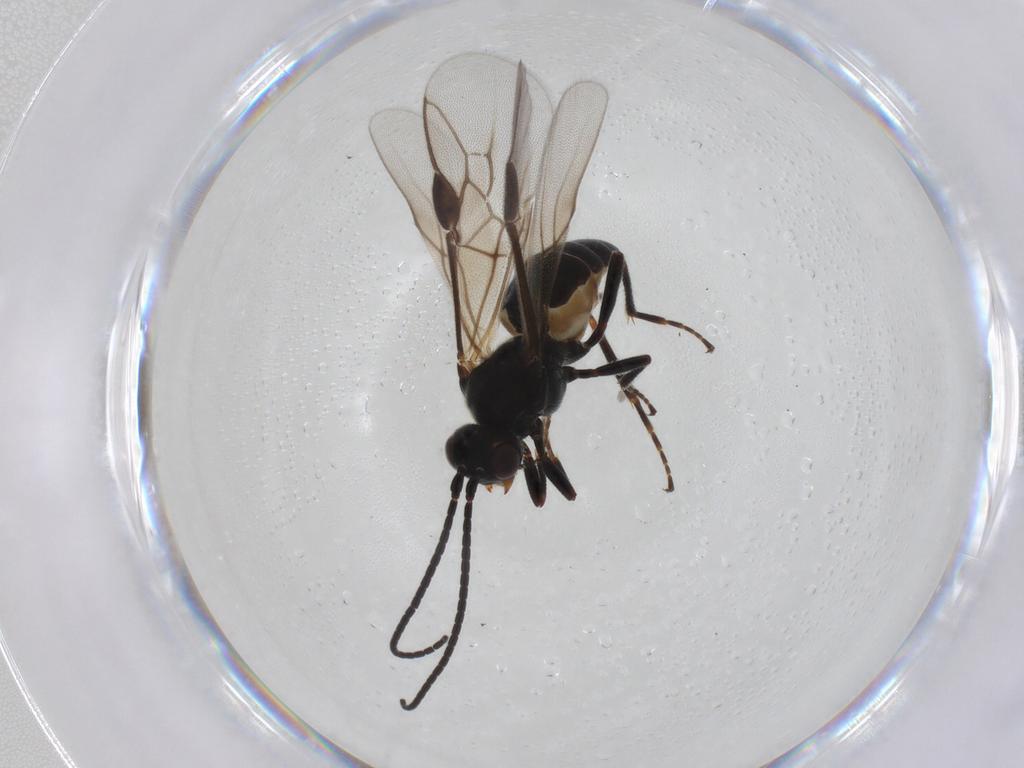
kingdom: Animalia
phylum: Arthropoda
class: Insecta
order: Hymenoptera
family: Braconidae
